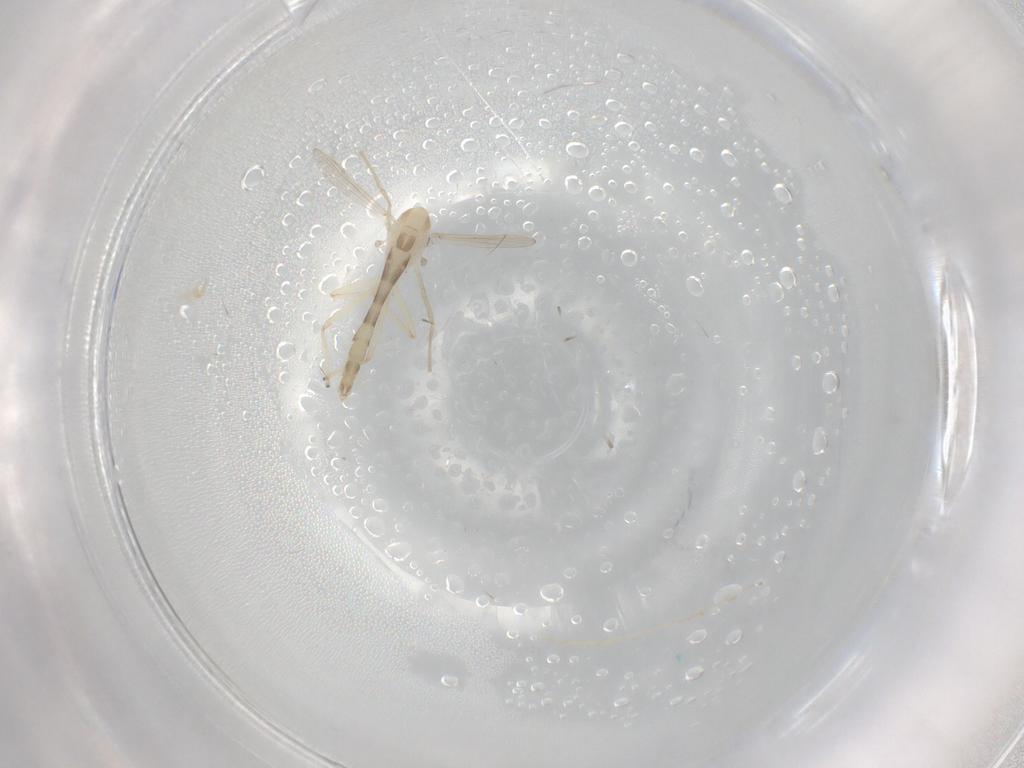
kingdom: Animalia
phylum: Arthropoda
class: Insecta
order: Diptera
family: Chironomidae
